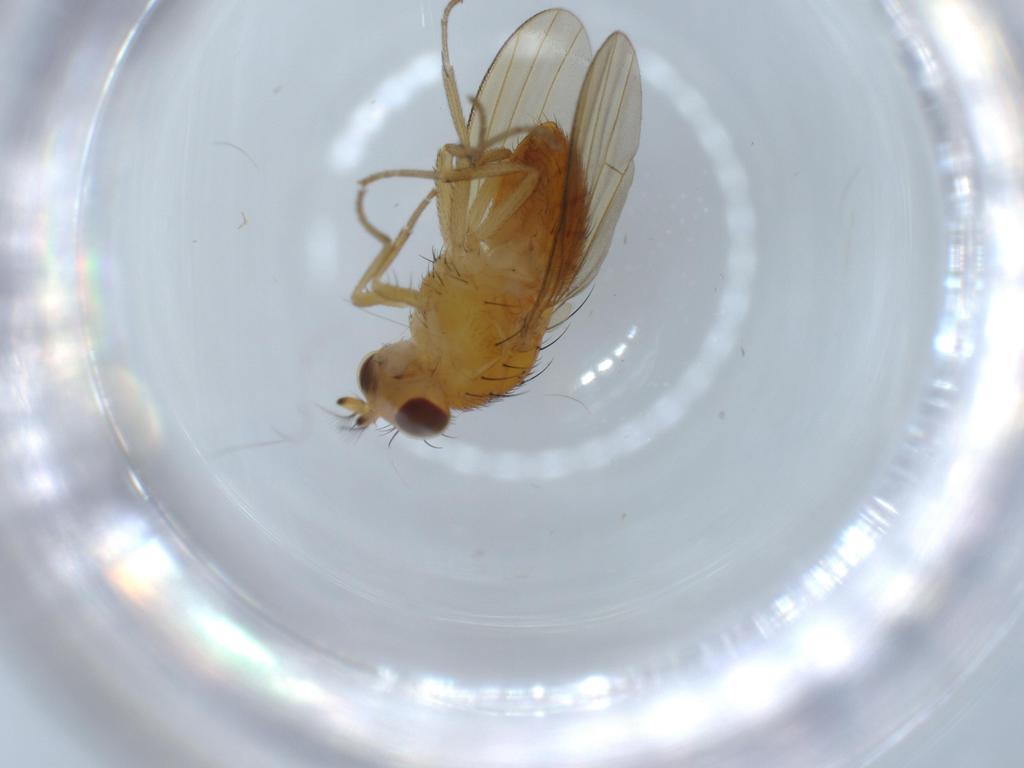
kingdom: Animalia
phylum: Arthropoda
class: Insecta
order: Diptera
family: Lauxaniidae
